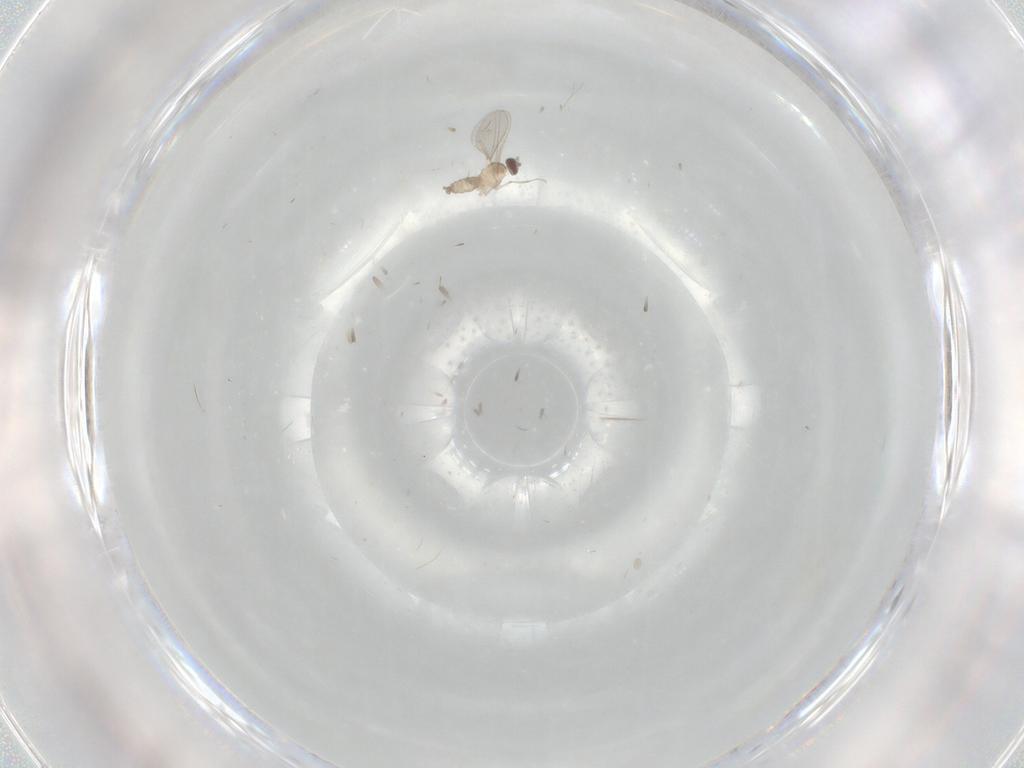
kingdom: Animalia
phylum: Arthropoda
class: Insecta
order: Diptera
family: Cecidomyiidae
